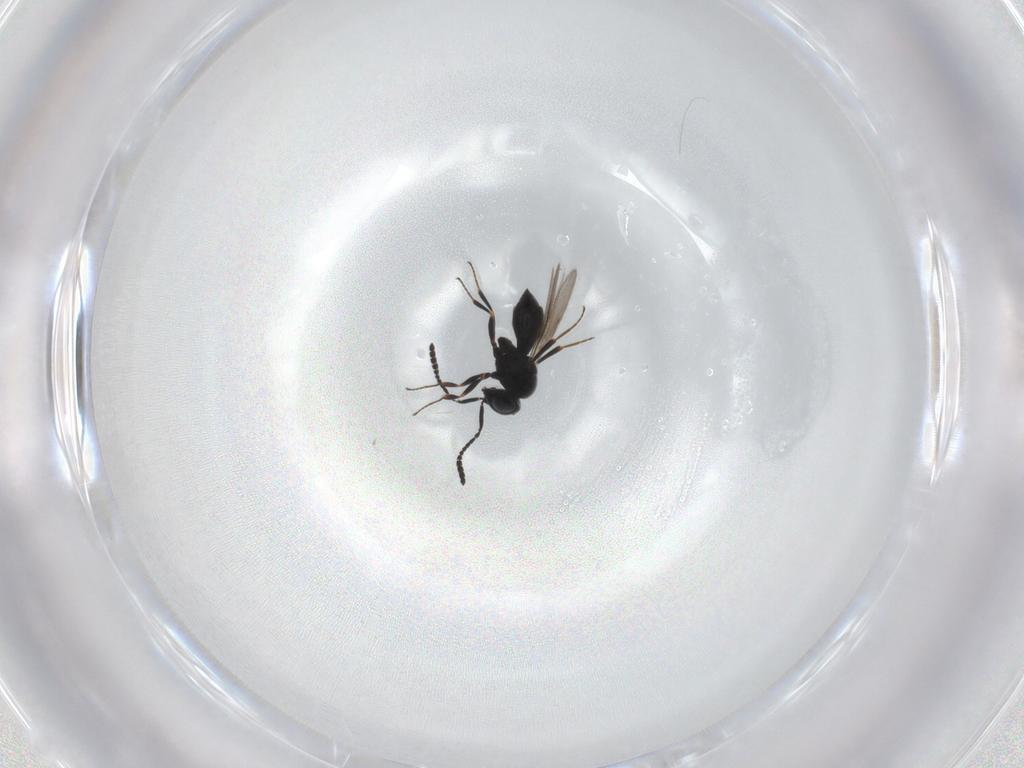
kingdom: Animalia
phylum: Arthropoda
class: Insecta
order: Hymenoptera
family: Scelionidae
